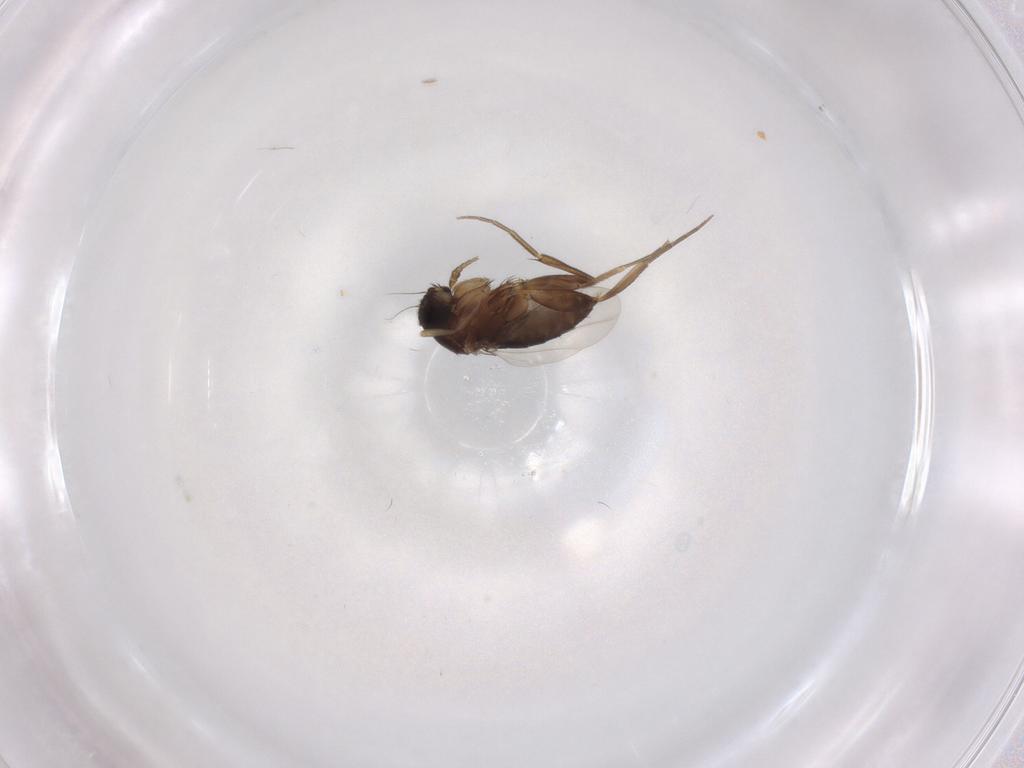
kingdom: Animalia
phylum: Arthropoda
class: Insecta
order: Diptera
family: Phoridae
